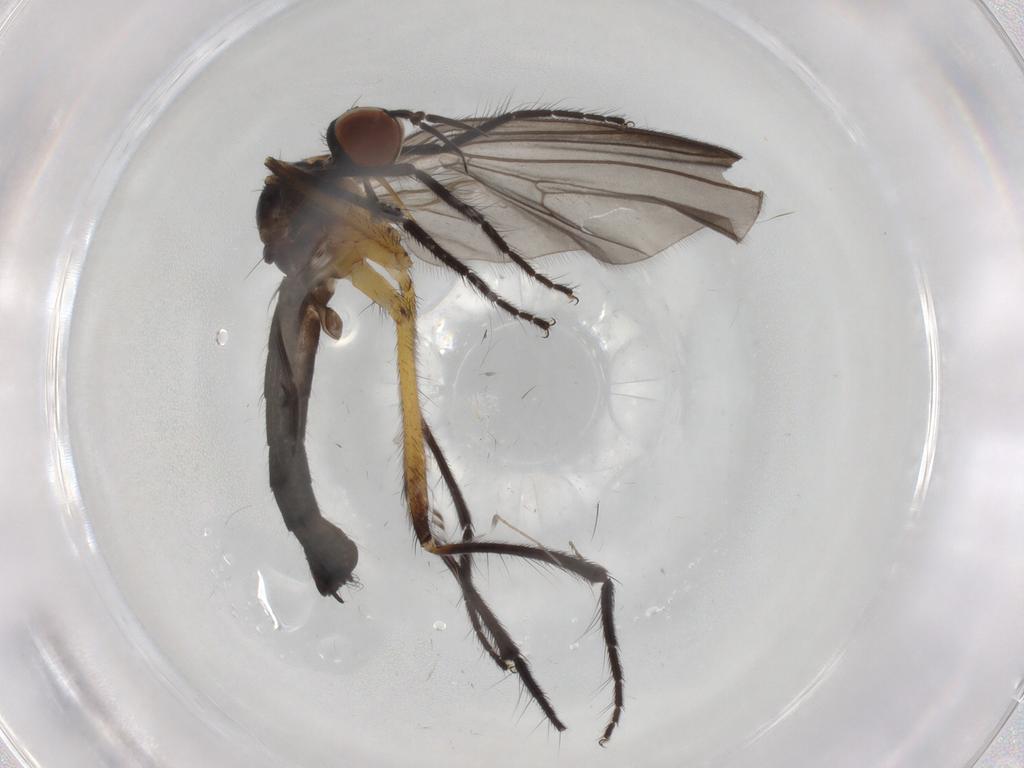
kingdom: Animalia
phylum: Arthropoda
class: Insecta
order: Diptera
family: Empididae
